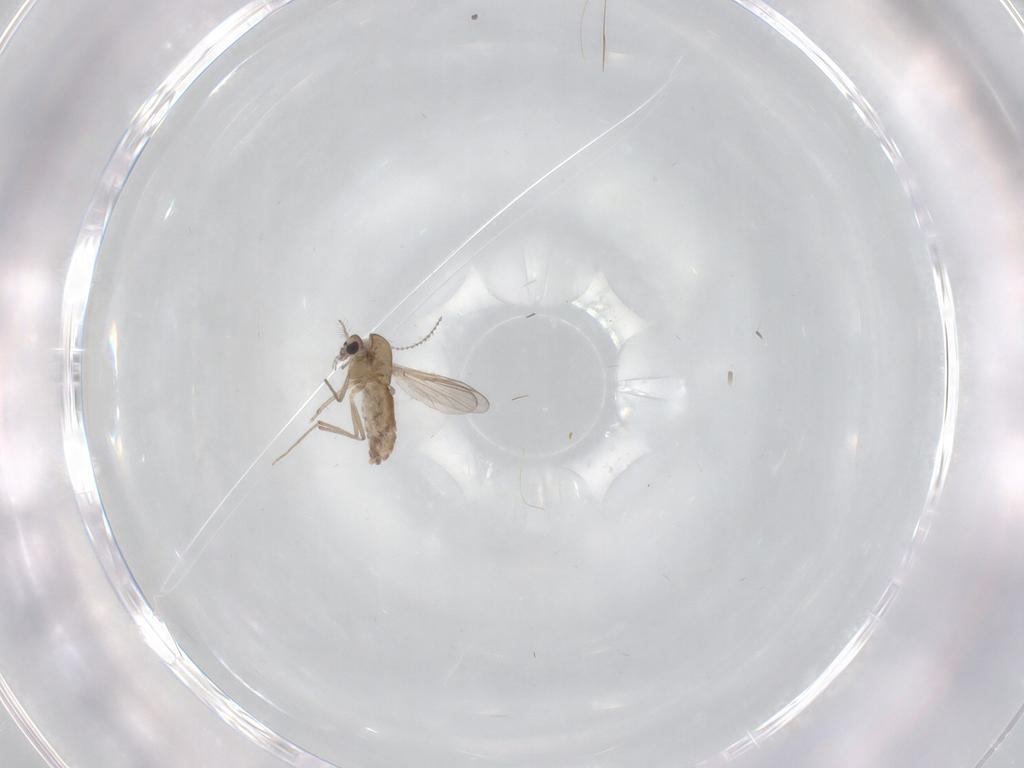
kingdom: Animalia
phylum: Arthropoda
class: Insecta
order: Diptera
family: Chironomidae
